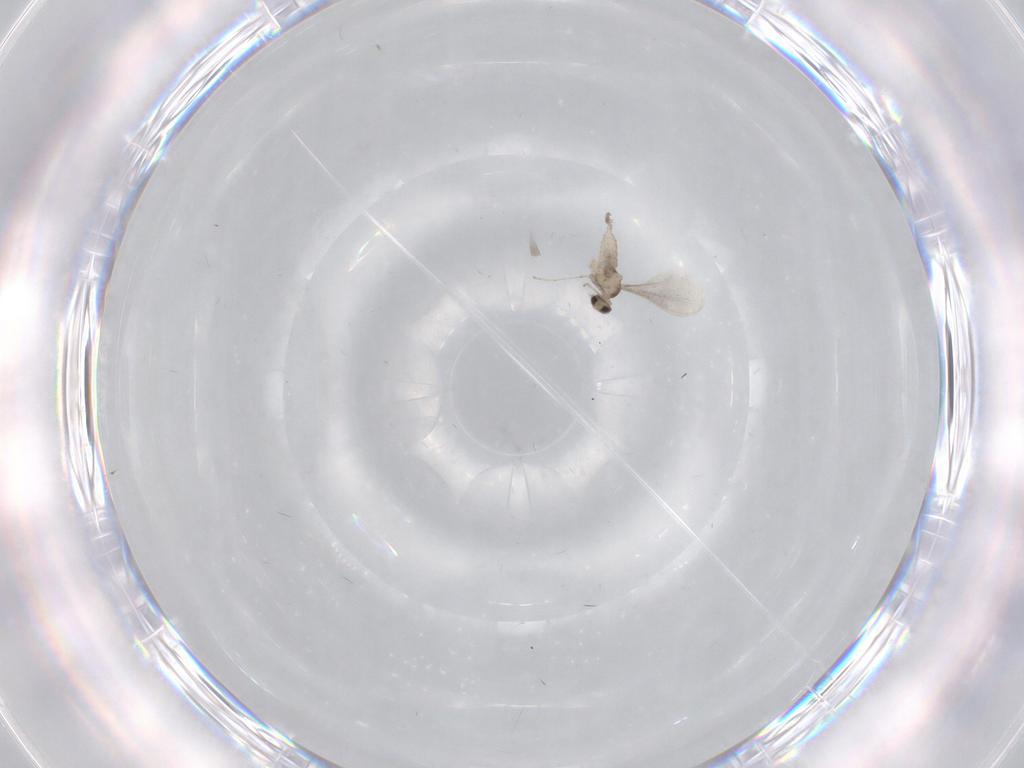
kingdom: Animalia
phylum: Arthropoda
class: Insecta
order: Diptera
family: Cecidomyiidae
